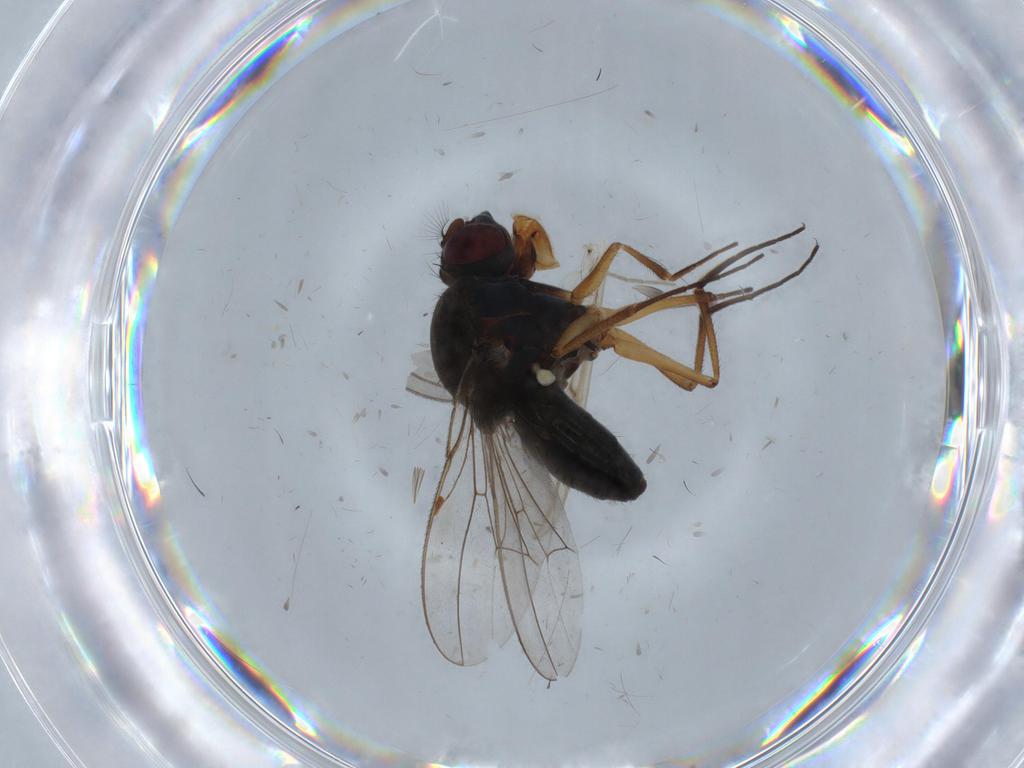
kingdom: Animalia
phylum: Arthropoda
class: Insecta
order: Diptera
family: Ephydridae
